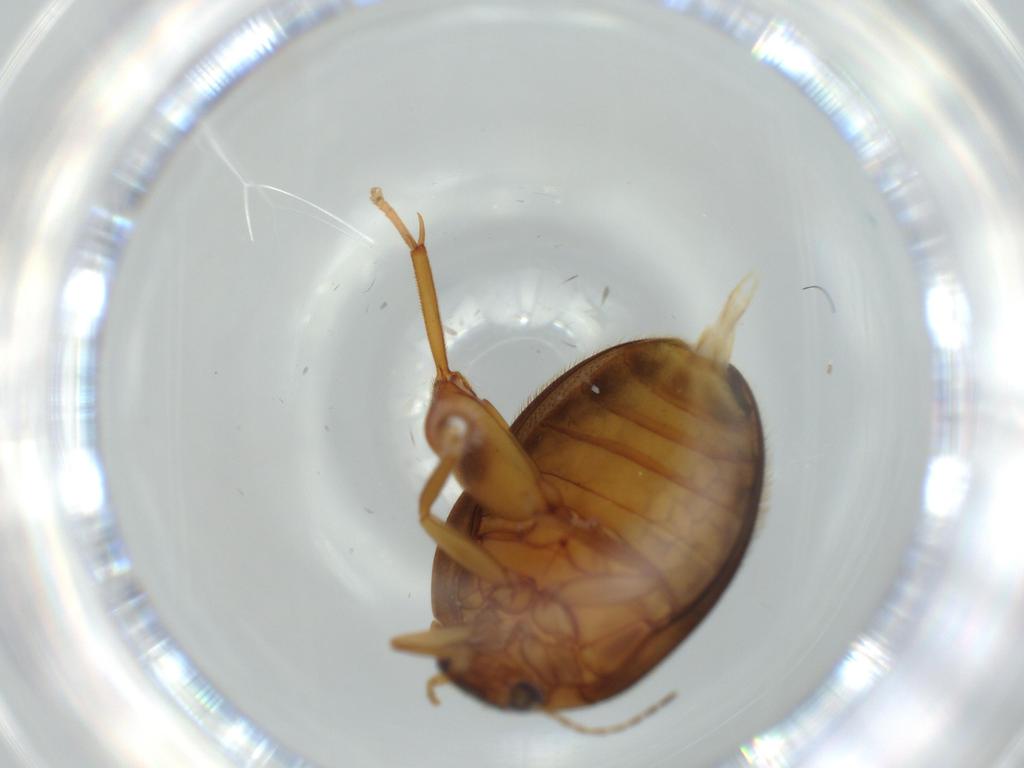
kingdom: Animalia
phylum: Arthropoda
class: Insecta
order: Coleoptera
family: Scirtidae
